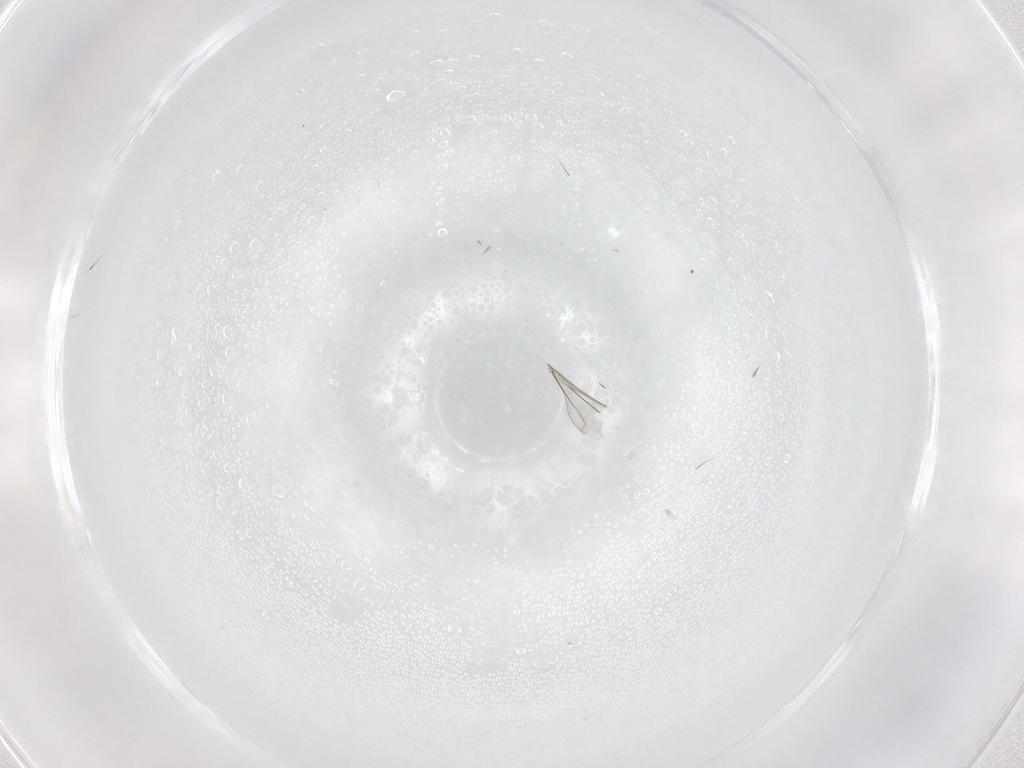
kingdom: Animalia
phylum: Arthropoda
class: Insecta
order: Diptera
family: Cecidomyiidae
